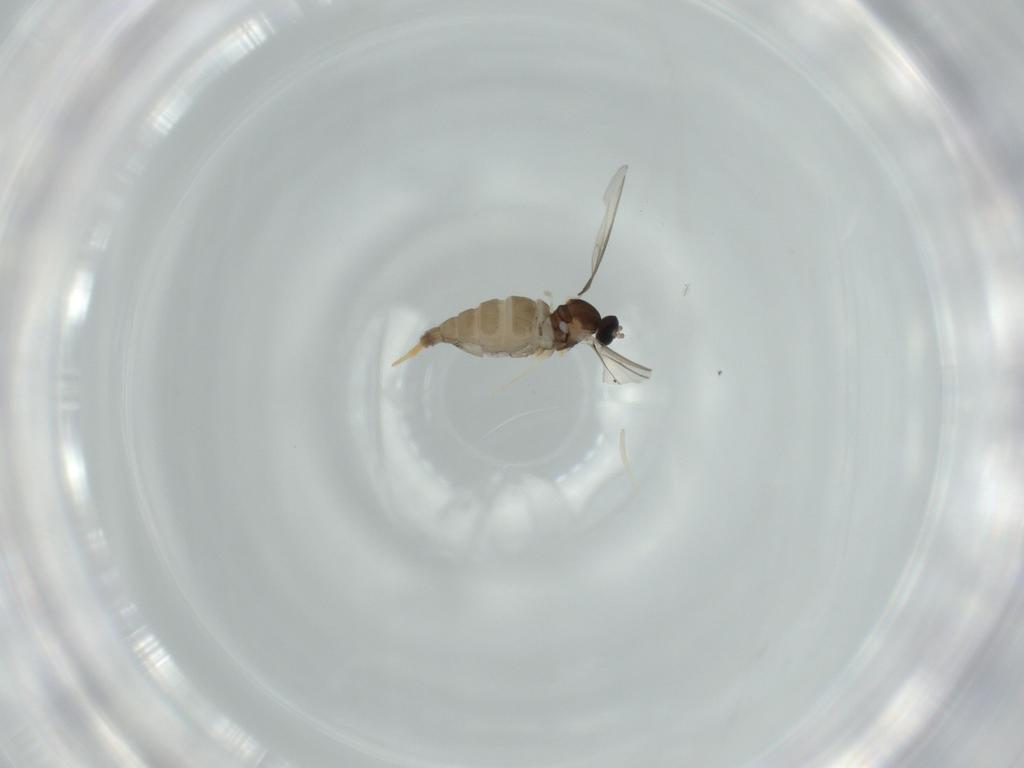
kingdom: Animalia
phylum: Arthropoda
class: Insecta
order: Diptera
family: Cecidomyiidae
